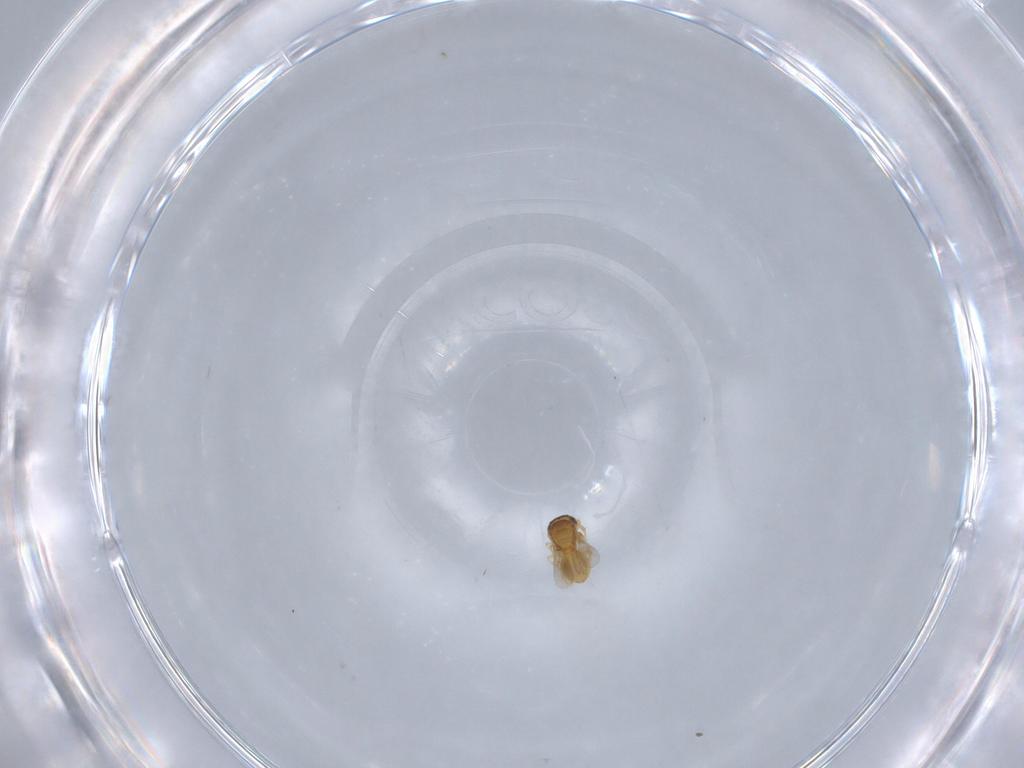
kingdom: Animalia
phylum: Arthropoda
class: Insecta
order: Hymenoptera
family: Scelionidae
